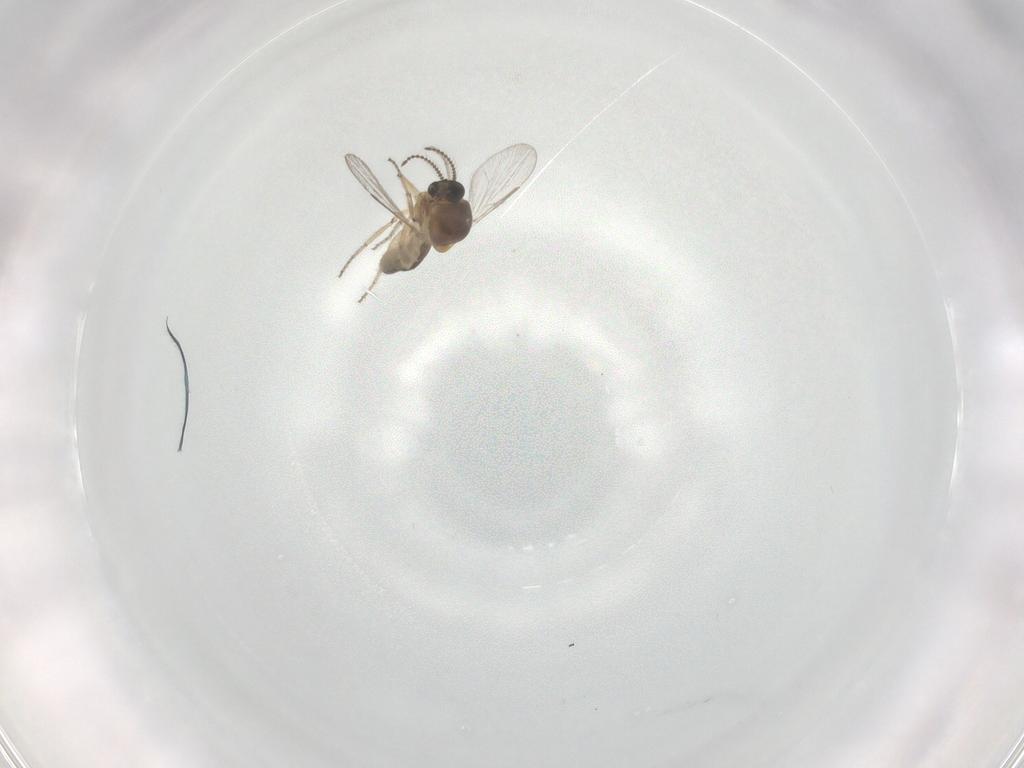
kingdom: Animalia
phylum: Arthropoda
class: Insecta
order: Diptera
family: Ceratopogonidae
